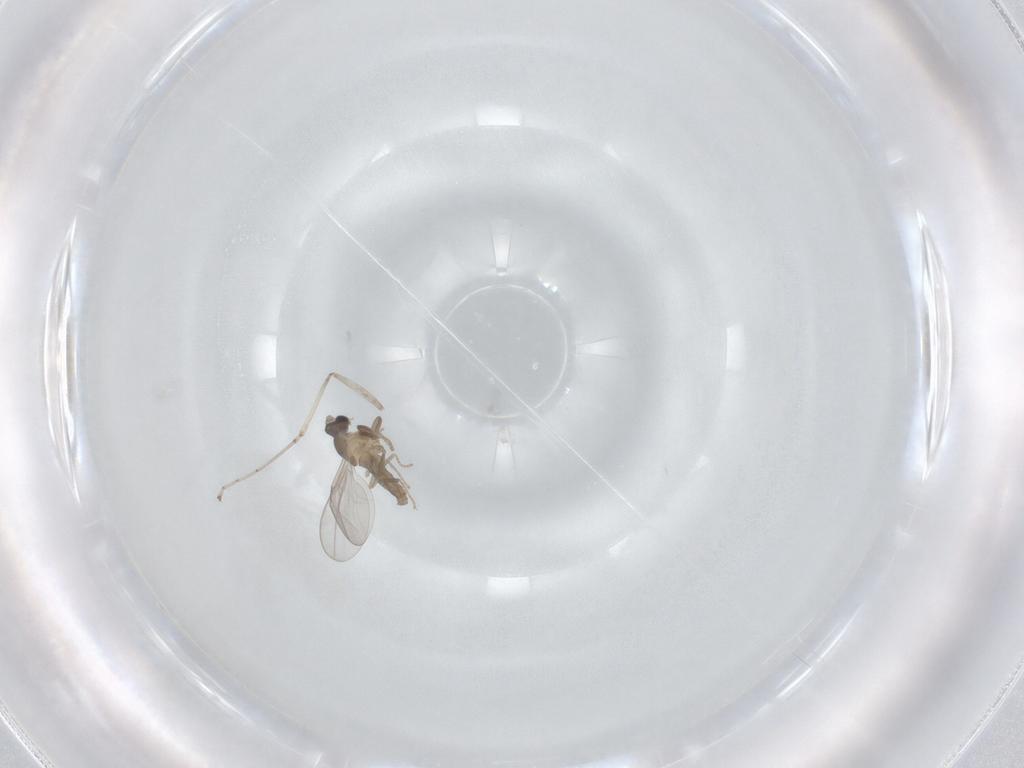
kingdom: Animalia
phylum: Arthropoda
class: Insecta
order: Diptera
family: Cecidomyiidae
